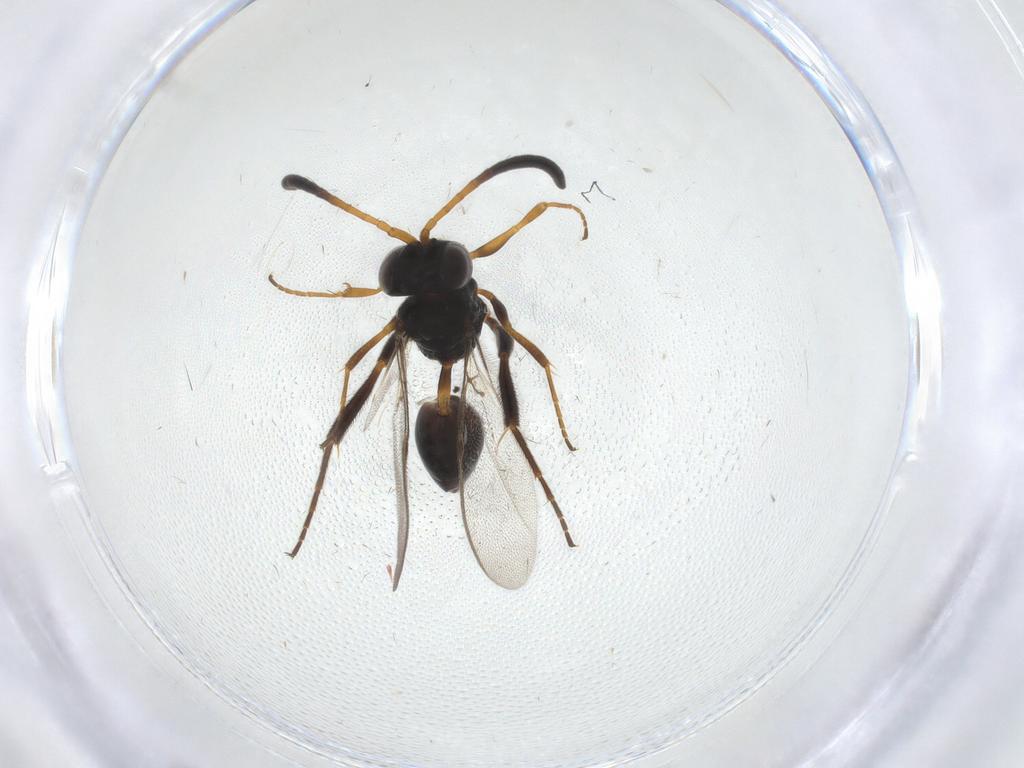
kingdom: Animalia
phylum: Arthropoda
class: Insecta
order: Hymenoptera
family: Evaniidae
